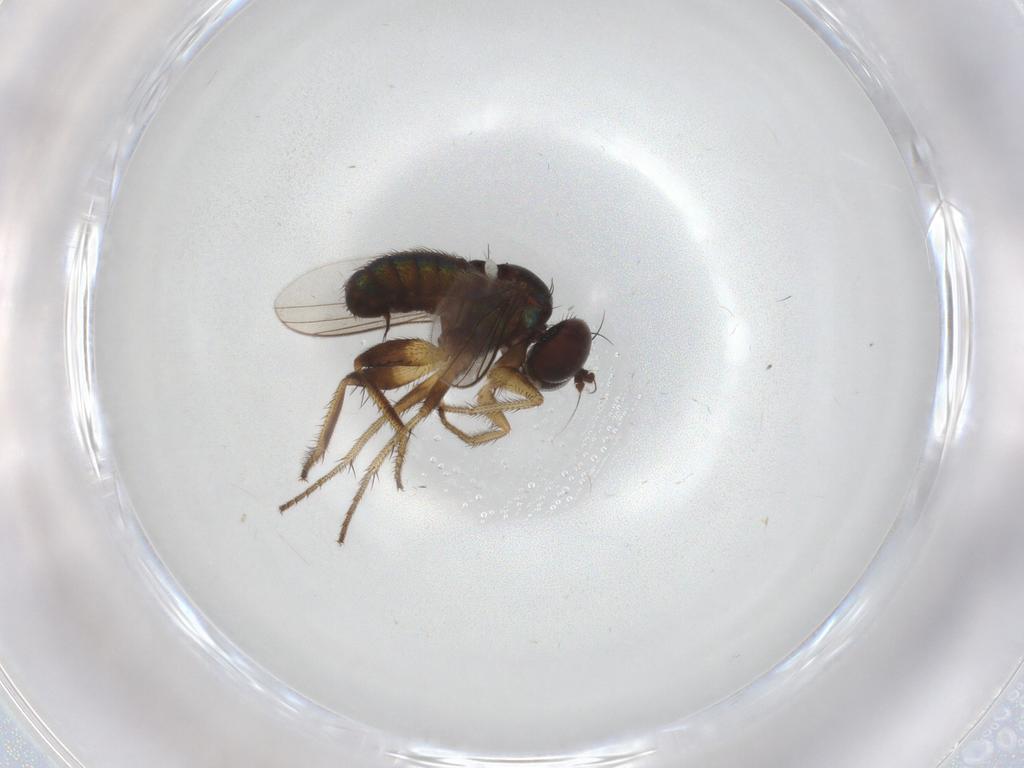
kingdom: Animalia
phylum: Arthropoda
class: Insecta
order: Diptera
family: Dolichopodidae
